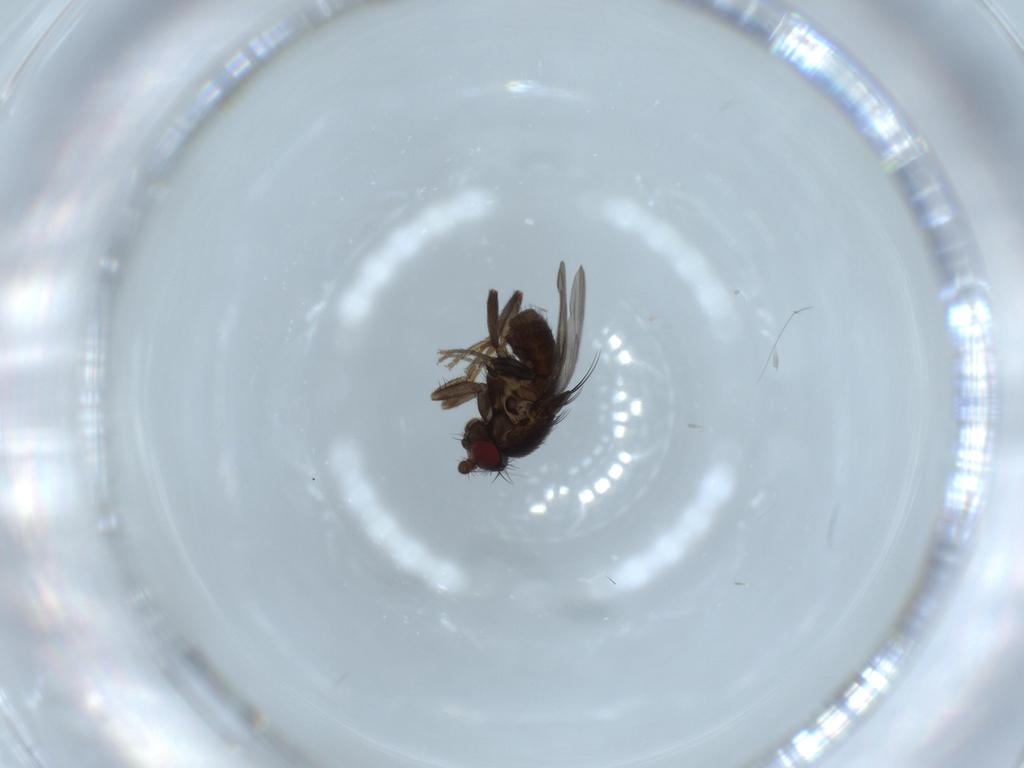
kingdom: Animalia
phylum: Arthropoda
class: Insecta
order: Diptera
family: Sphaeroceridae
